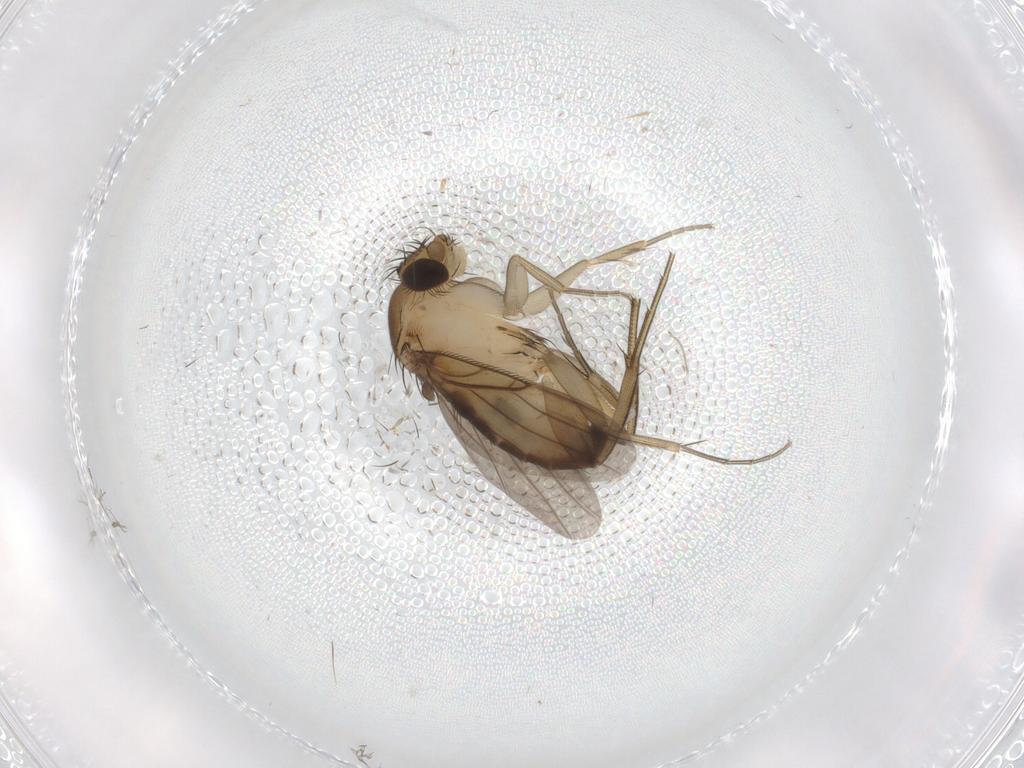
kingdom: Animalia
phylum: Arthropoda
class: Insecta
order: Diptera
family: Phoridae
